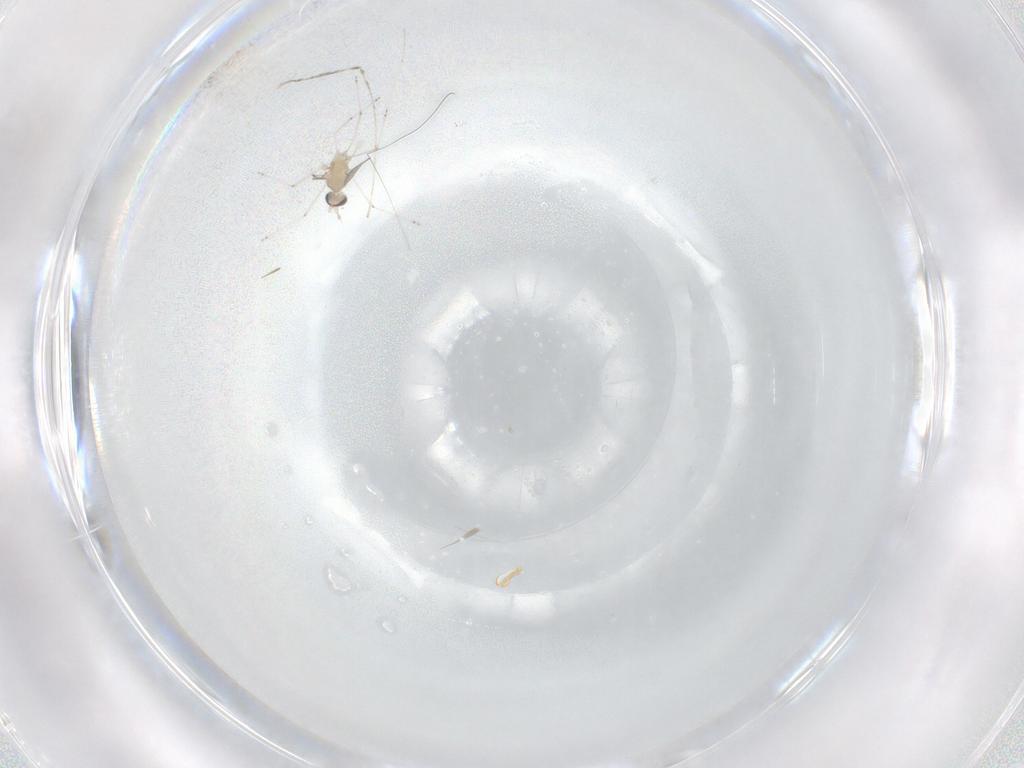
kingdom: Animalia
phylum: Arthropoda
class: Insecta
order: Diptera
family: Cecidomyiidae
